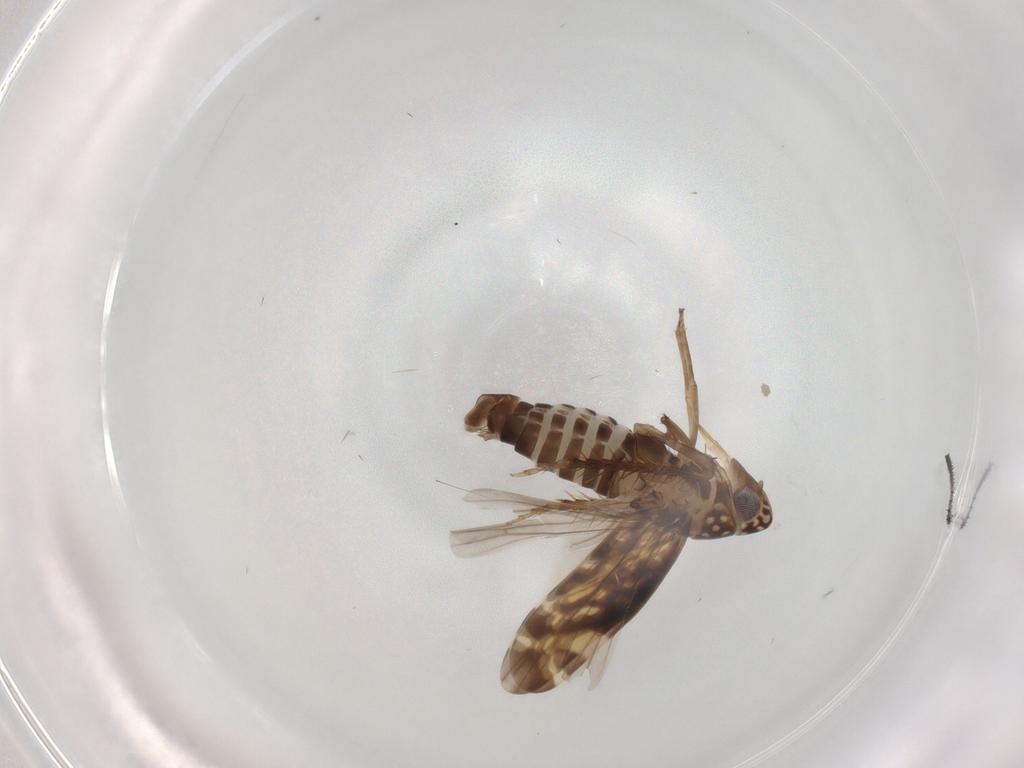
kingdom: Animalia
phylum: Arthropoda
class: Insecta
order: Hemiptera
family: Cicadellidae
